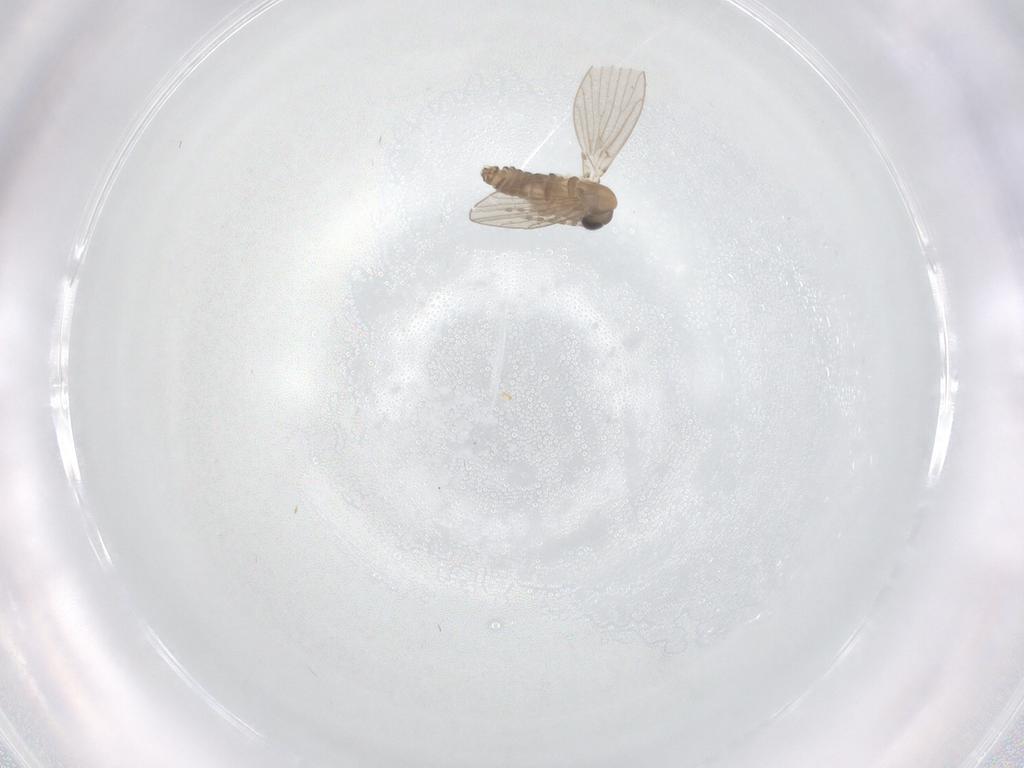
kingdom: Animalia
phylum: Arthropoda
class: Insecta
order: Diptera
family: Psychodidae
